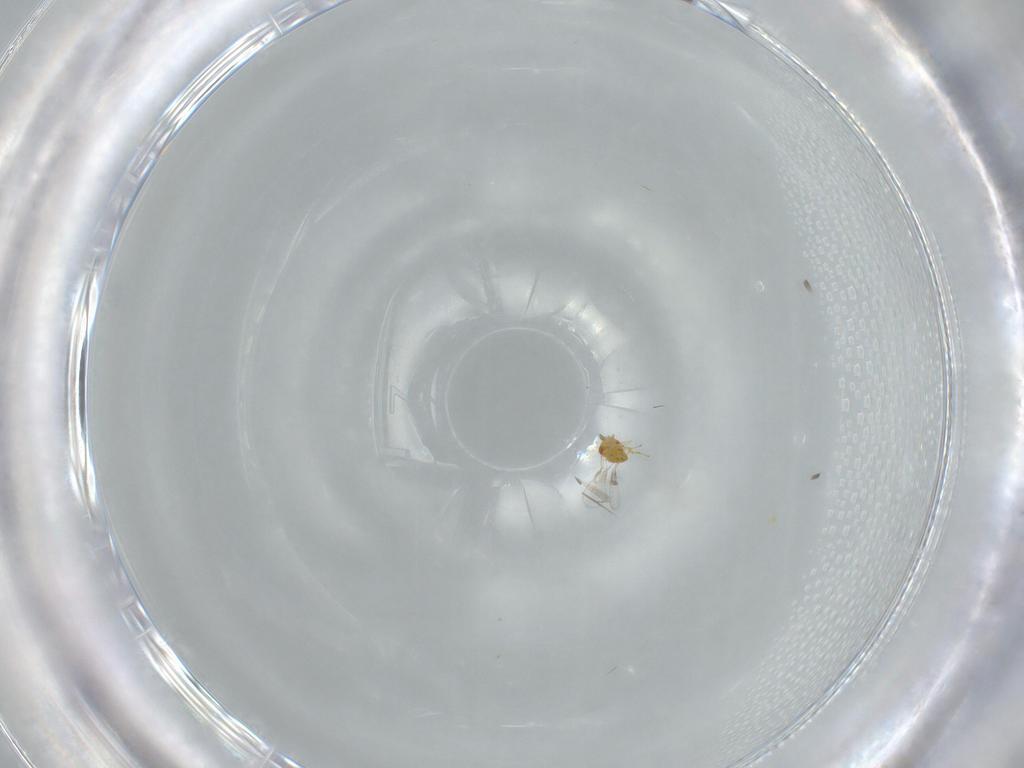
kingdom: Animalia
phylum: Arthropoda
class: Insecta
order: Hymenoptera
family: Trichogrammatidae
